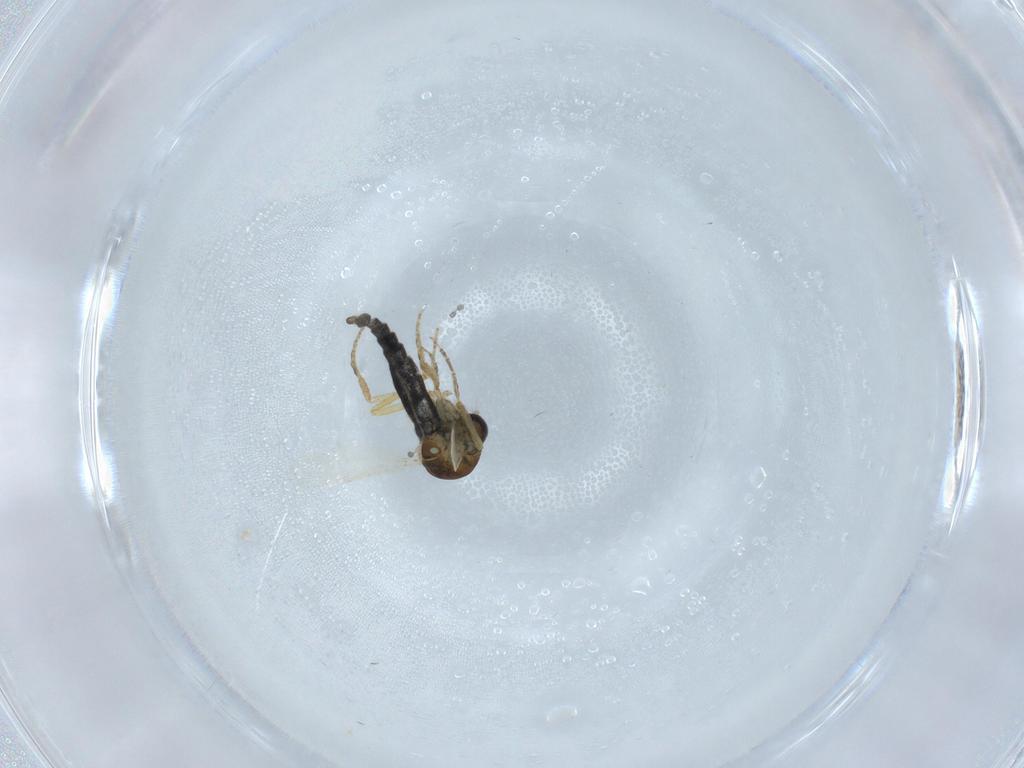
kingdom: Animalia
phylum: Arthropoda
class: Insecta
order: Diptera
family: Ceratopogonidae
